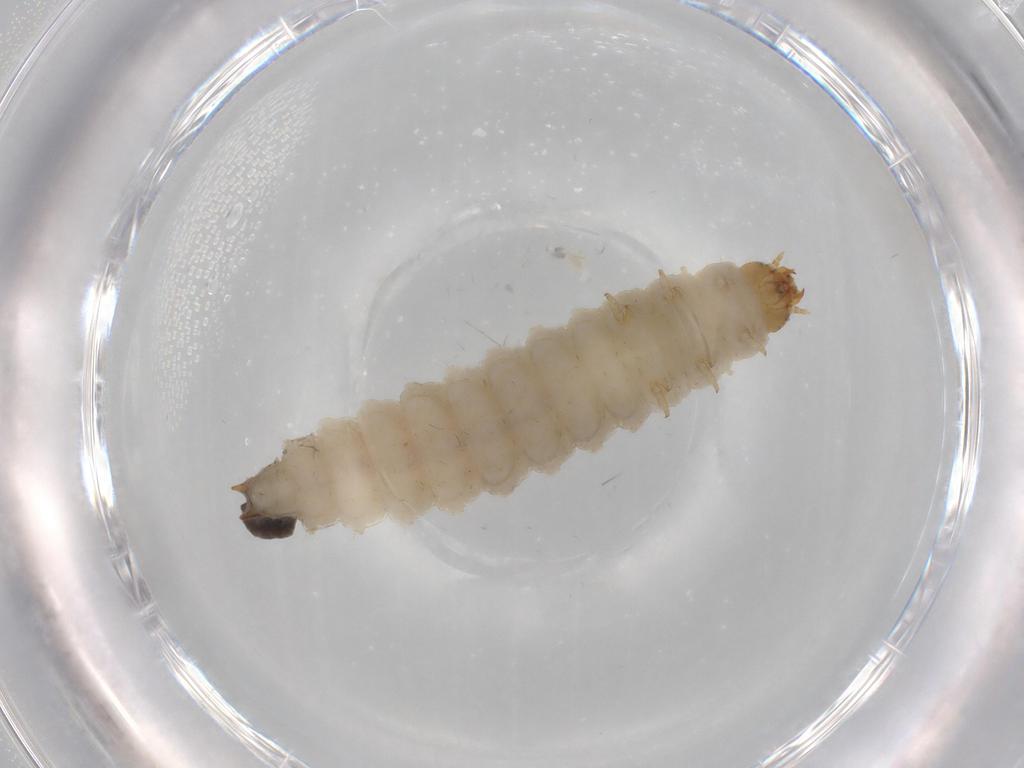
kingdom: Animalia
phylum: Arthropoda
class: Insecta
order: Coleoptera
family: Nitidulidae
